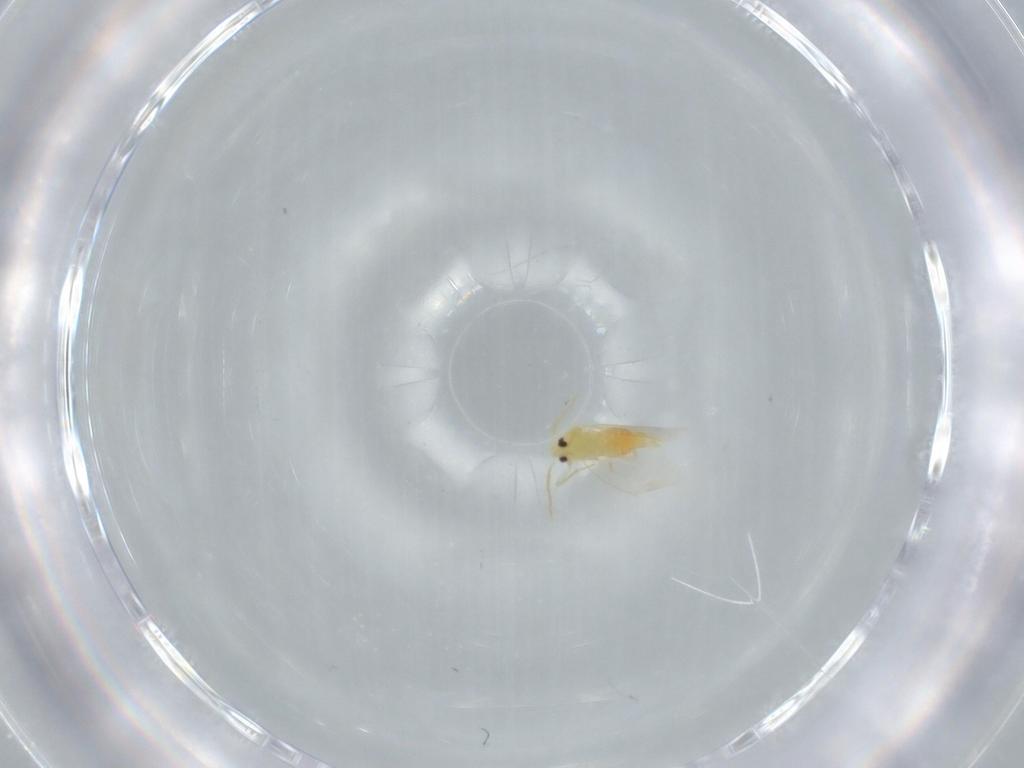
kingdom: Animalia
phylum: Arthropoda
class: Insecta
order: Hemiptera
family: Aleyrodidae
